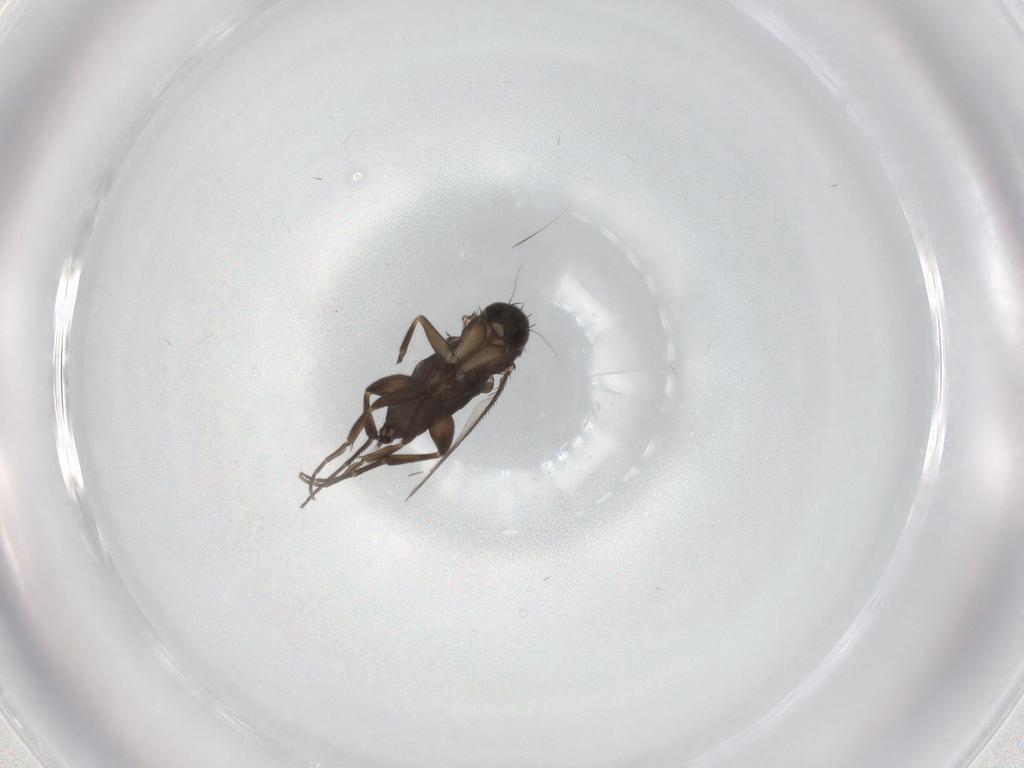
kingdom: Animalia
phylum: Arthropoda
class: Insecta
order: Diptera
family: Phoridae
